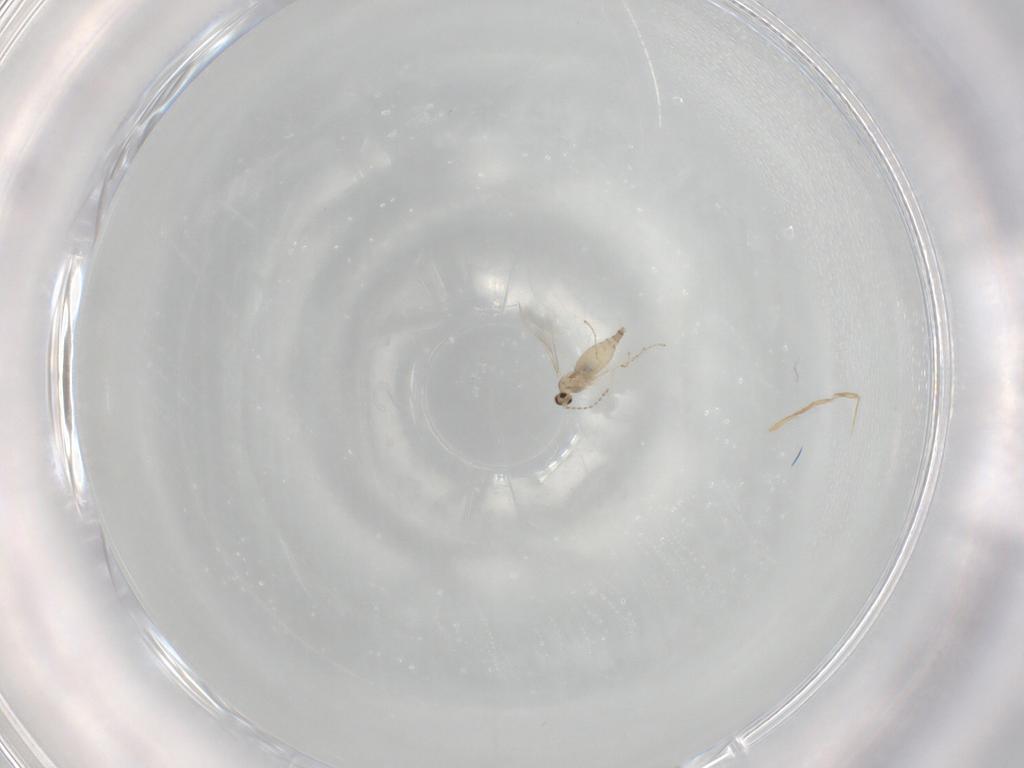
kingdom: Animalia
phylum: Arthropoda
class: Insecta
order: Diptera
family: Cecidomyiidae
